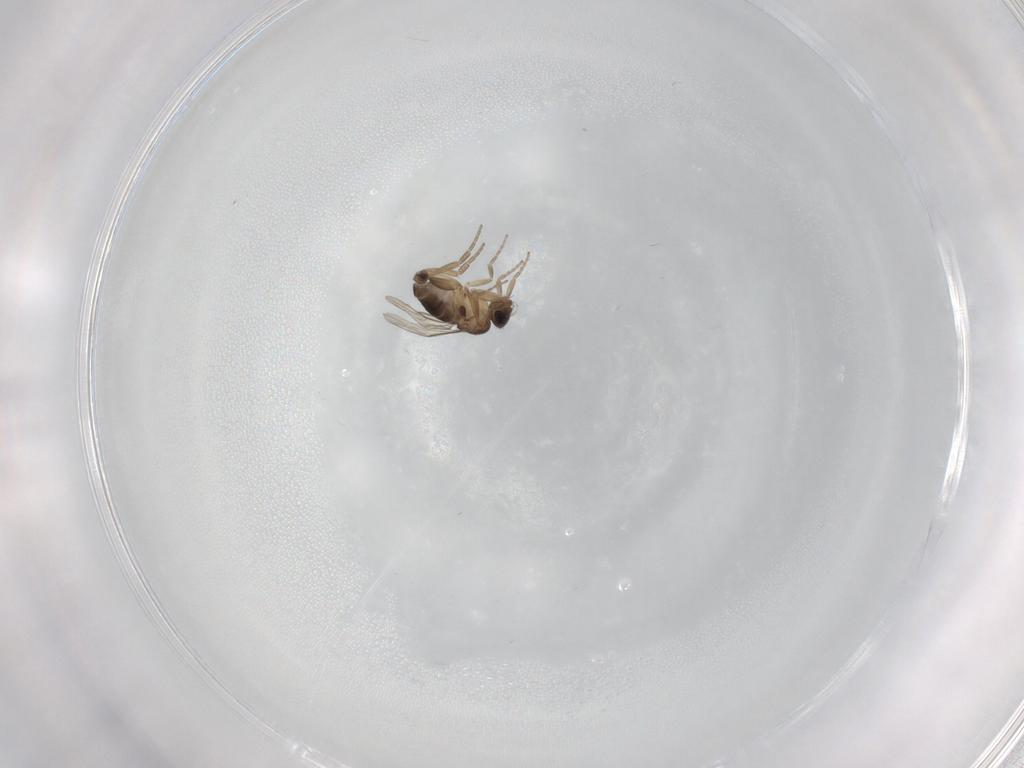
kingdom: Animalia
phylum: Arthropoda
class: Insecta
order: Diptera
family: Phoridae
